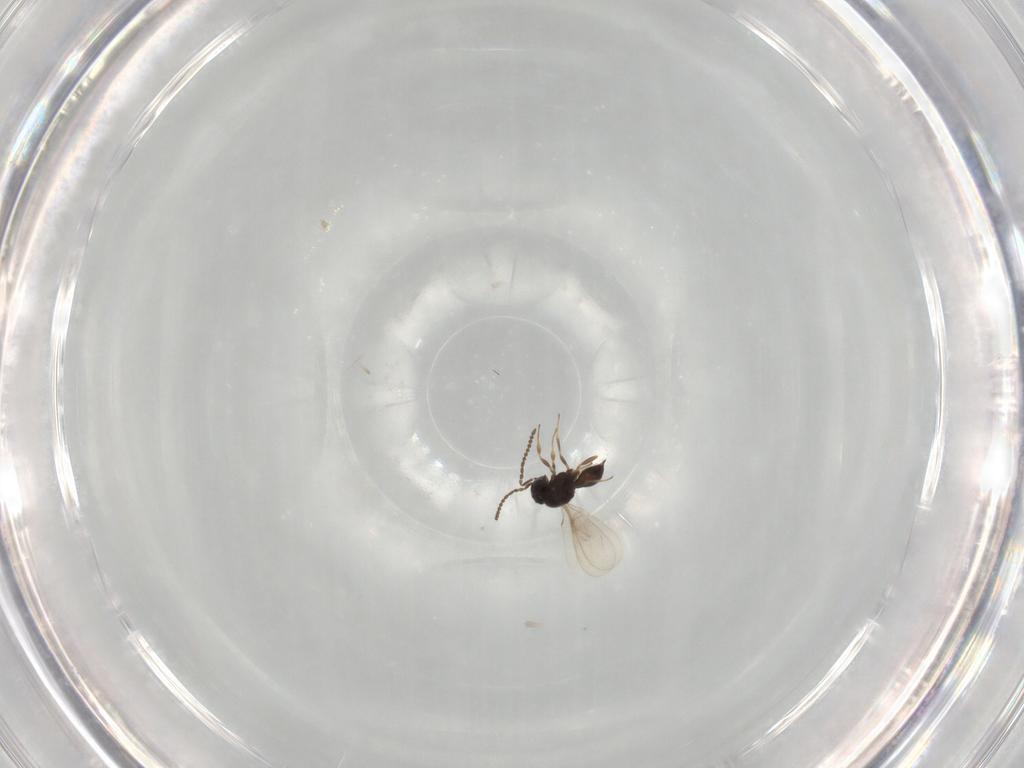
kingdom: Animalia
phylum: Arthropoda
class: Insecta
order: Hymenoptera
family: Scelionidae
